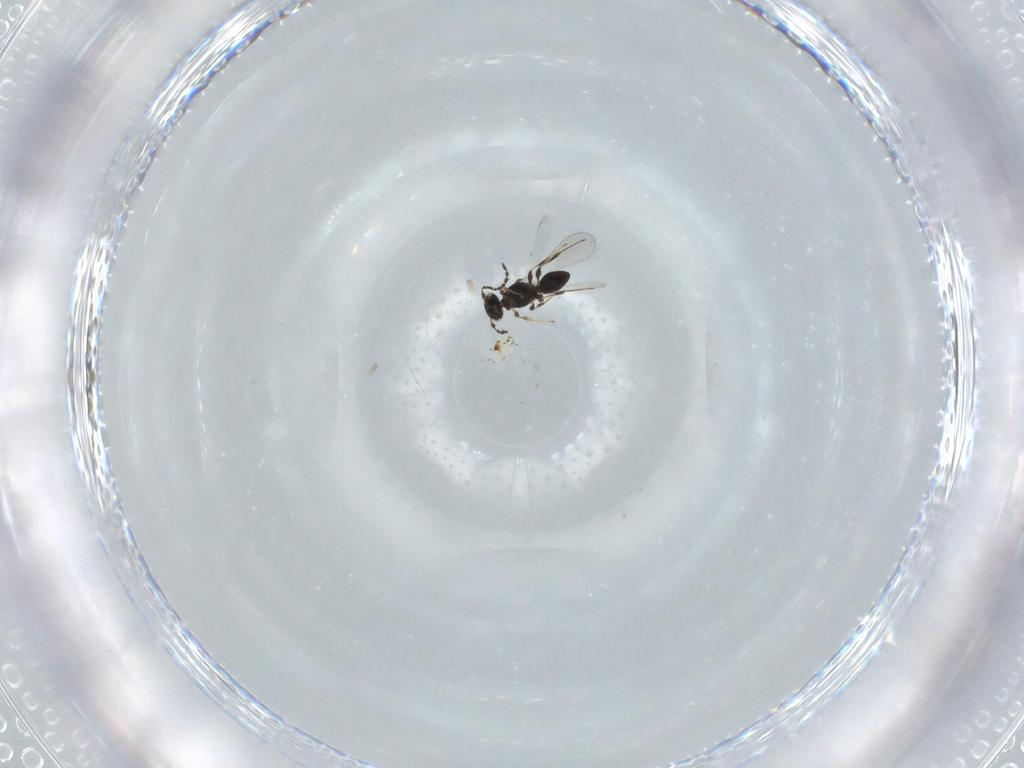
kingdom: Animalia
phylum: Arthropoda
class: Insecta
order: Hymenoptera
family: Platygastridae
